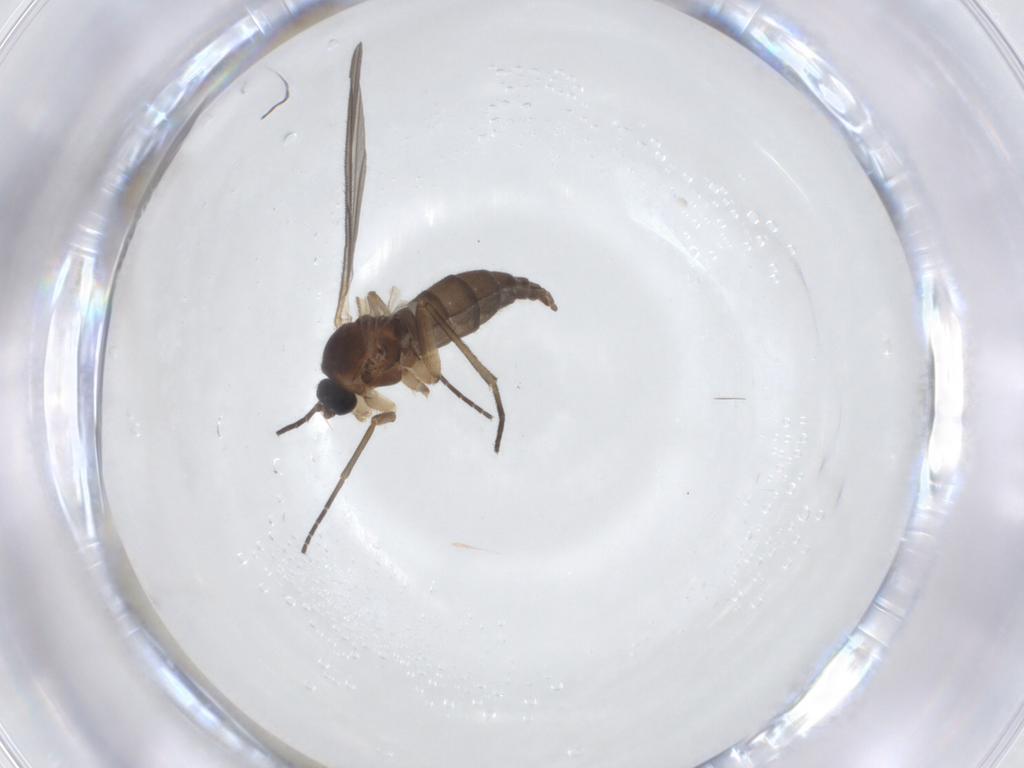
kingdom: Animalia
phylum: Arthropoda
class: Insecta
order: Diptera
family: Sciaridae
